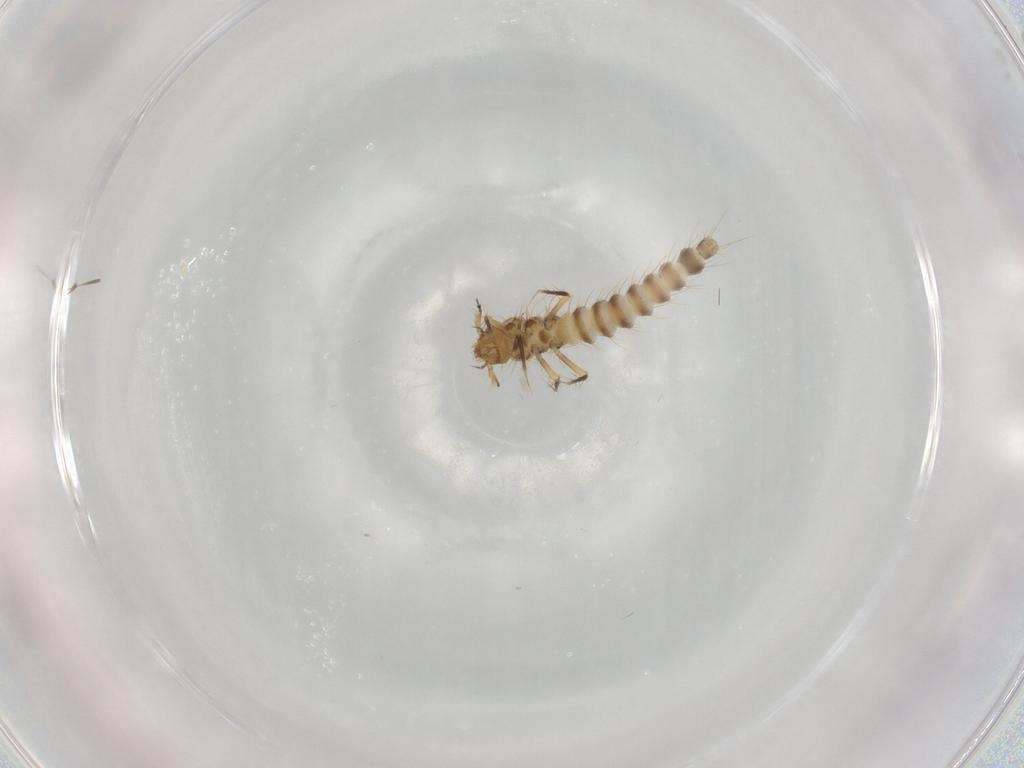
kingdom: Animalia
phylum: Arthropoda
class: Insecta
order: Coleoptera
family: Staphylinidae
